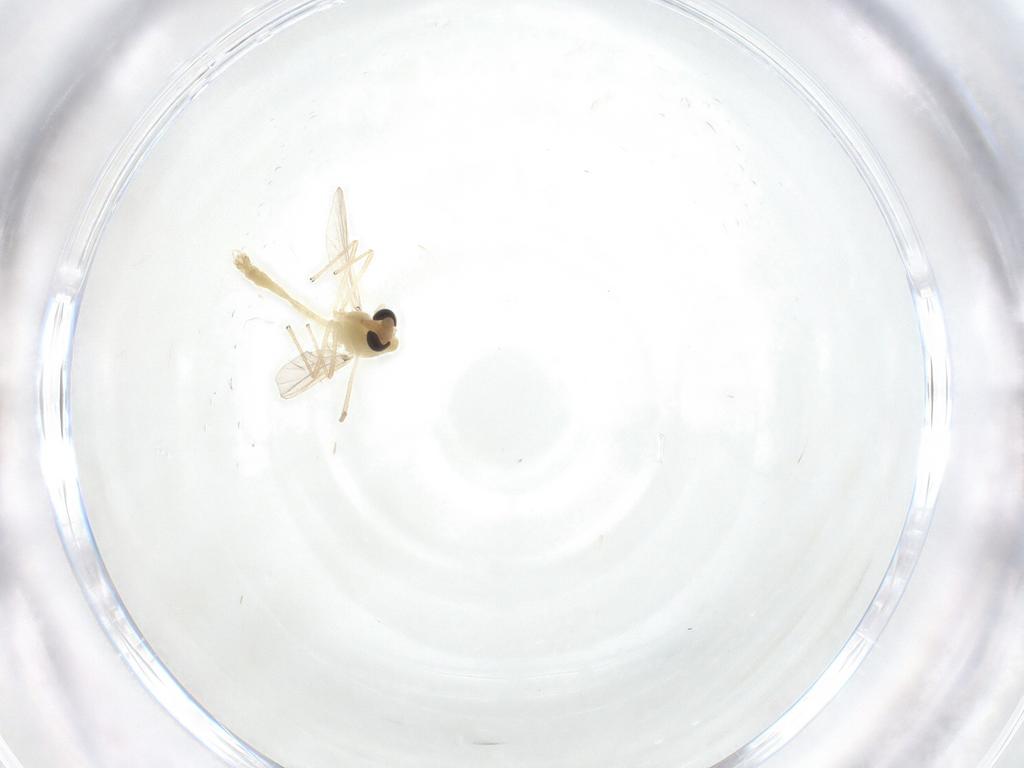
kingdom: Animalia
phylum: Arthropoda
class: Insecta
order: Diptera
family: Chironomidae
